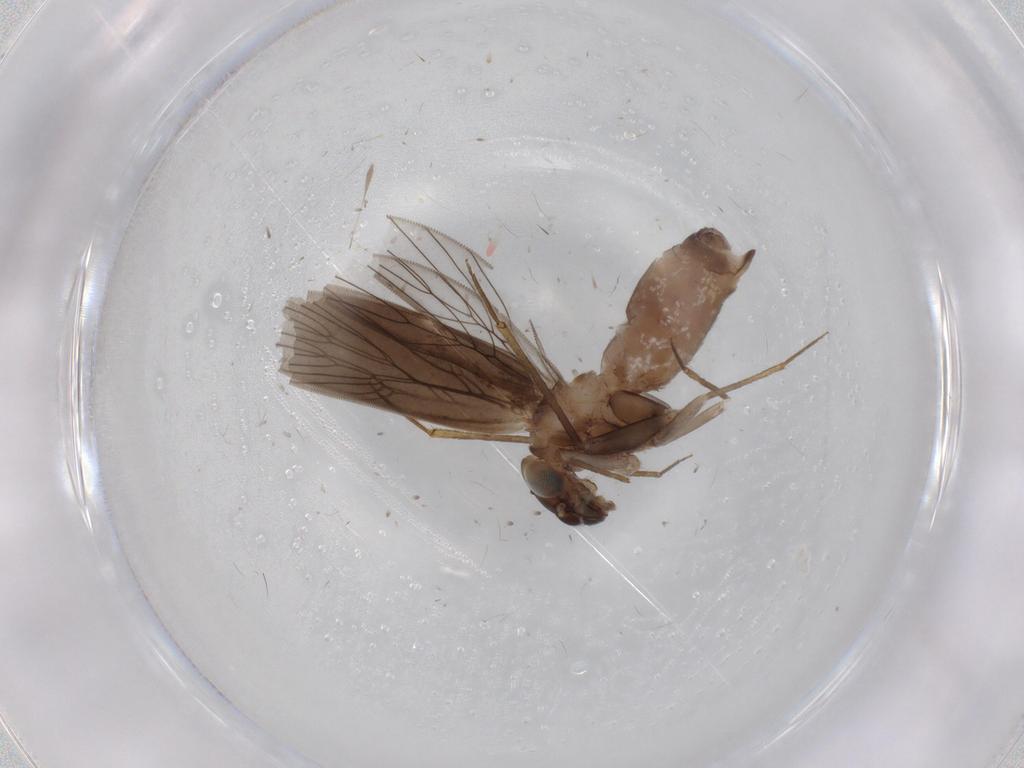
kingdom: Animalia
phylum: Arthropoda
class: Insecta
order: Psocodea
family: Lepidopsocidae
